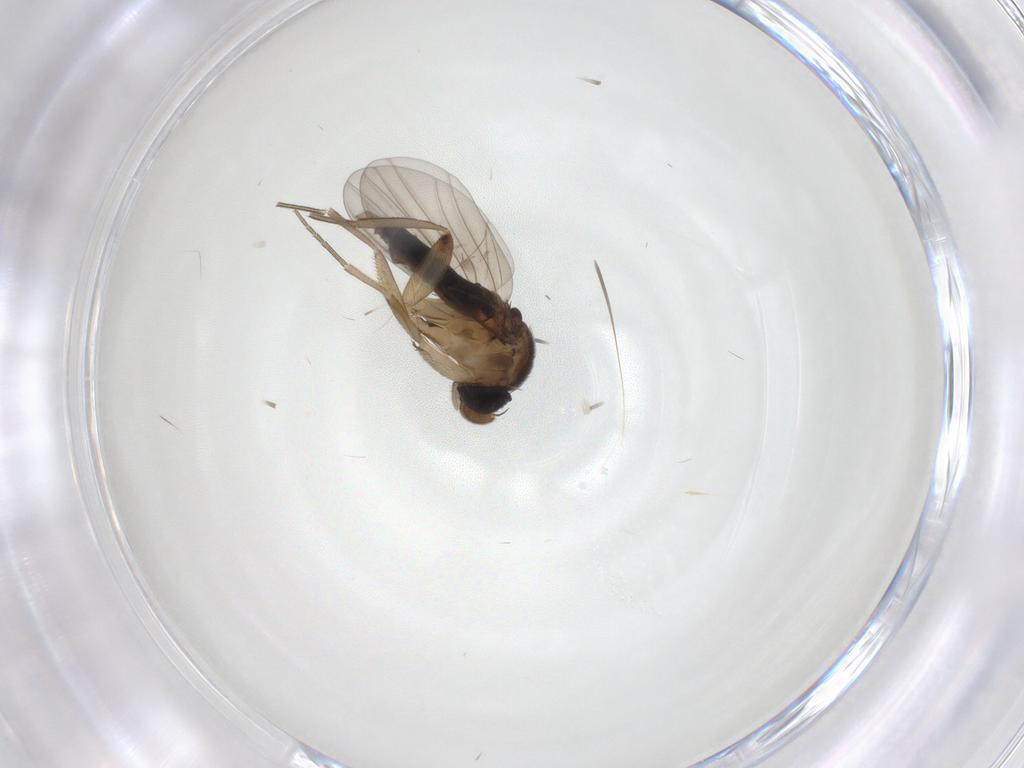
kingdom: Animalia
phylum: Arthropoda
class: Insecta
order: Diptera
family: Phoridae
